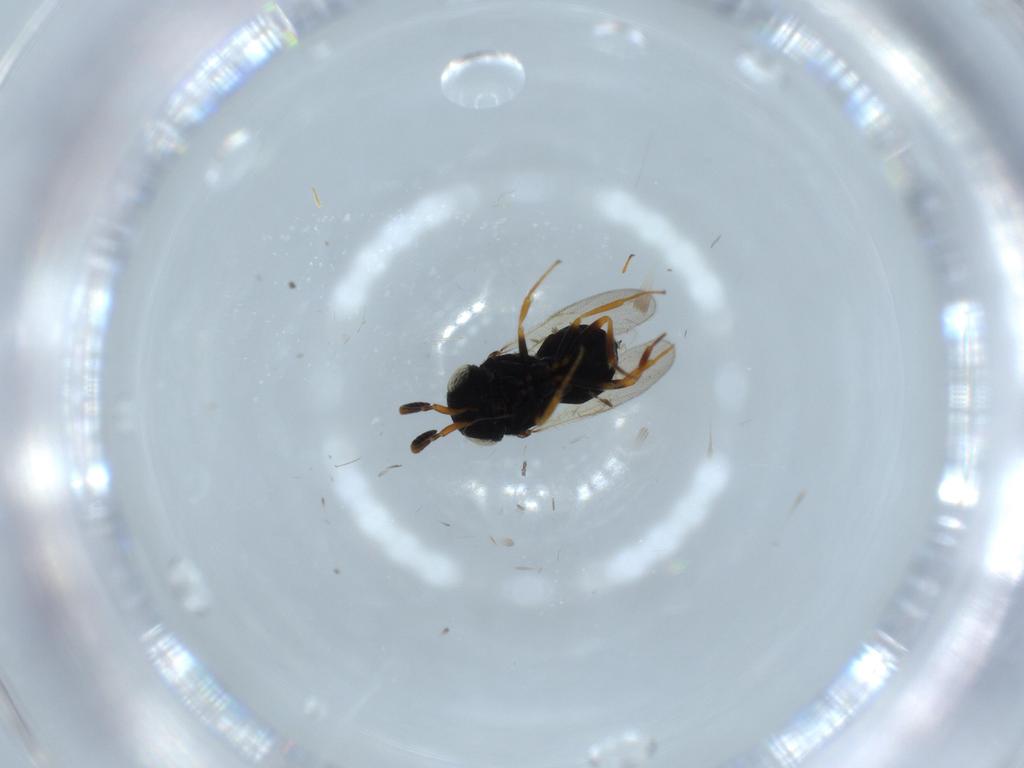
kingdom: Animalia
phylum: Arthropoda
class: Insecta
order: Hymenoptera
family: Scelionidae
